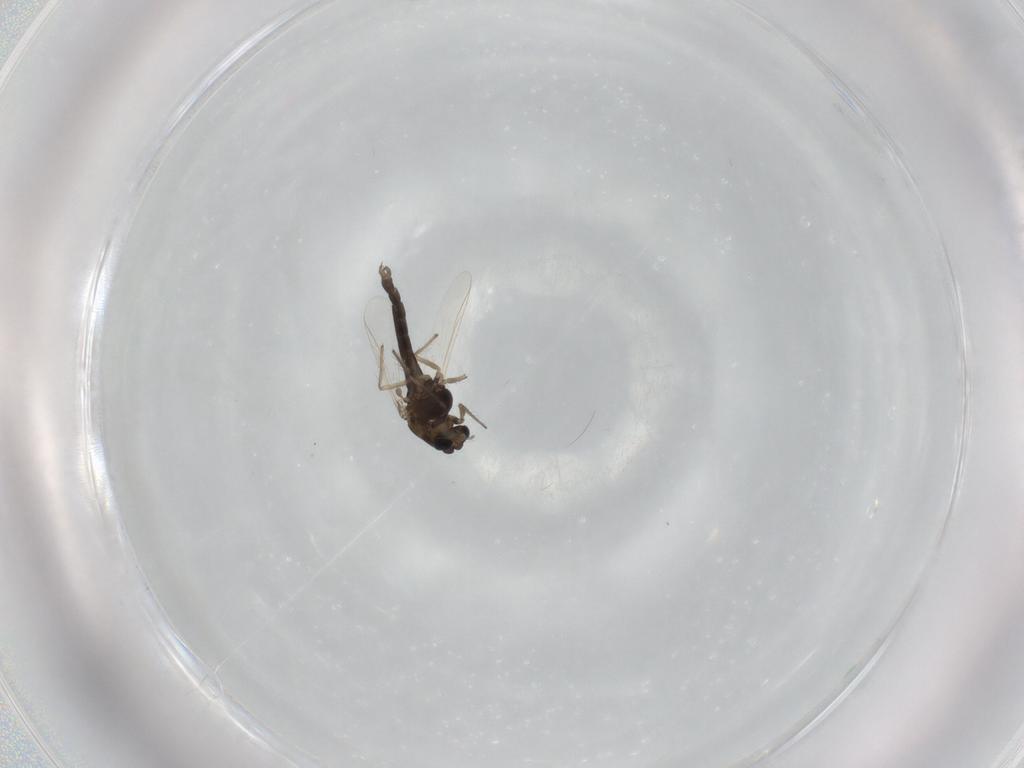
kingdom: Animalia
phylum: Arthropoda
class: Insecta
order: Diptera
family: Chironomidae
